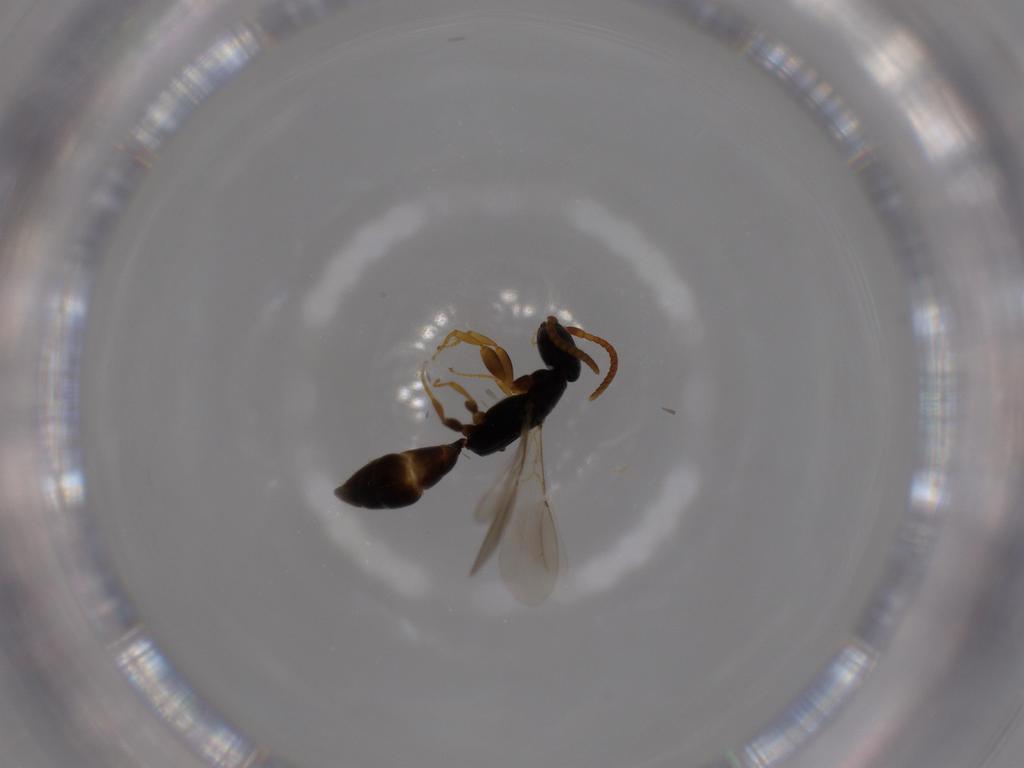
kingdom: Animalia
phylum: Arthropoda
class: Insecta
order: Hymenoptera
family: Bethylidae
